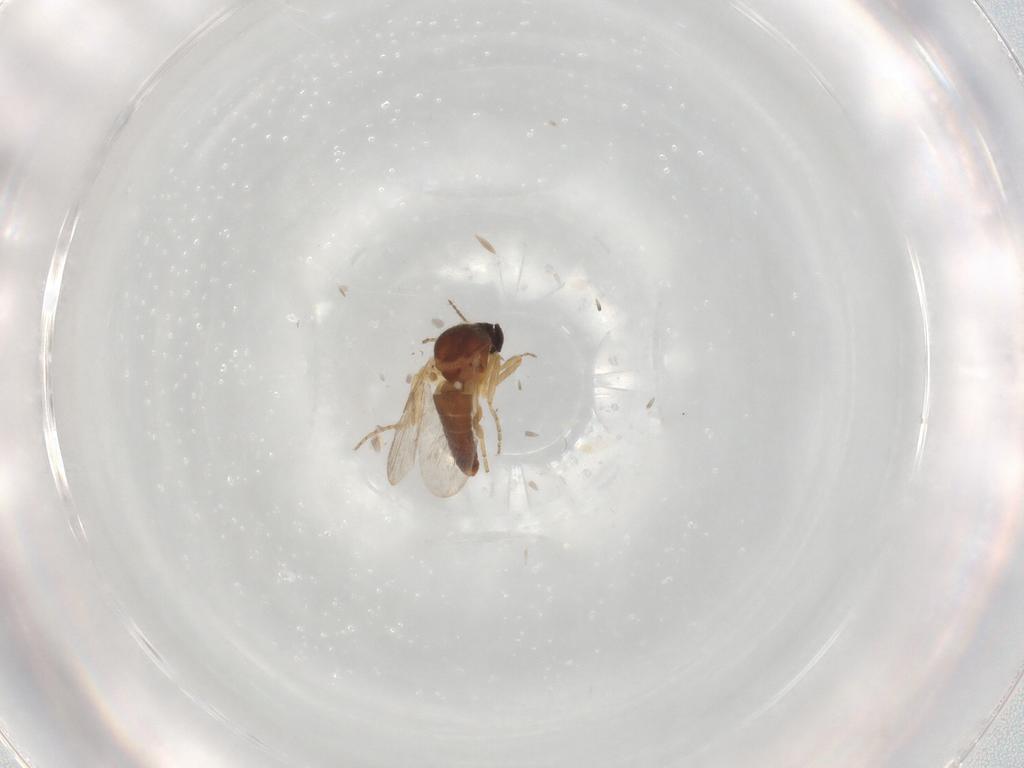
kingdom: Animalia
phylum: Arthropoda
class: Insecta
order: Diptera
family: Ceratopogonidae
